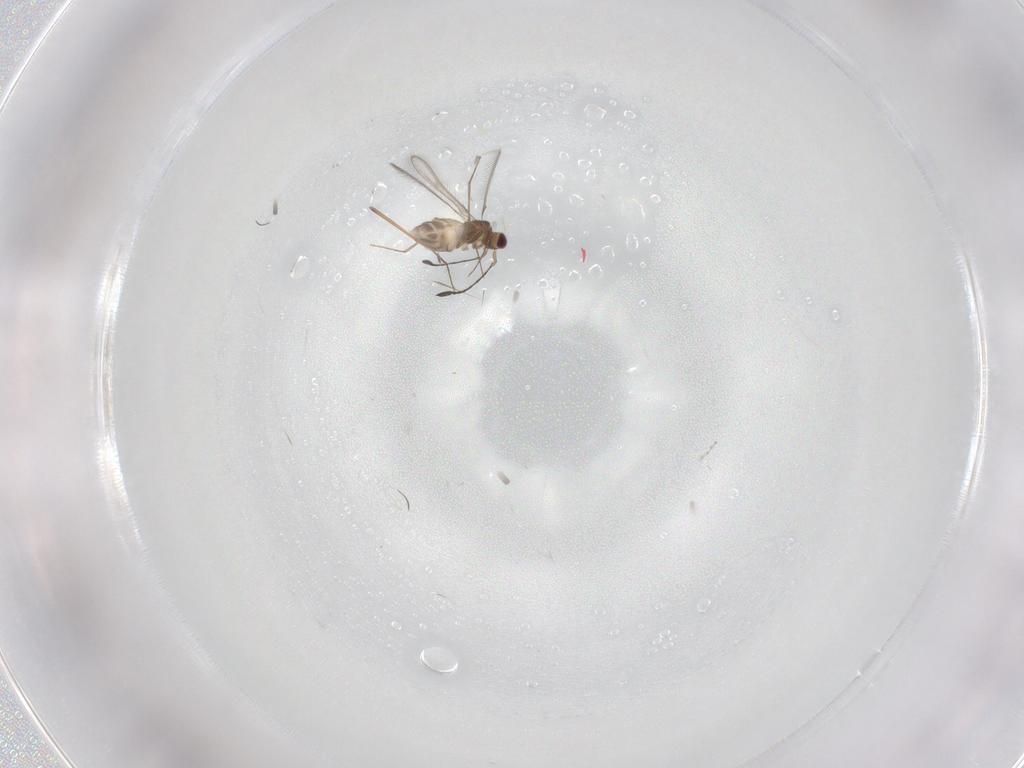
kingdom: Animalia
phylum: Arthropoda
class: Insecta
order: Hymenoptera
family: Mymaridae
